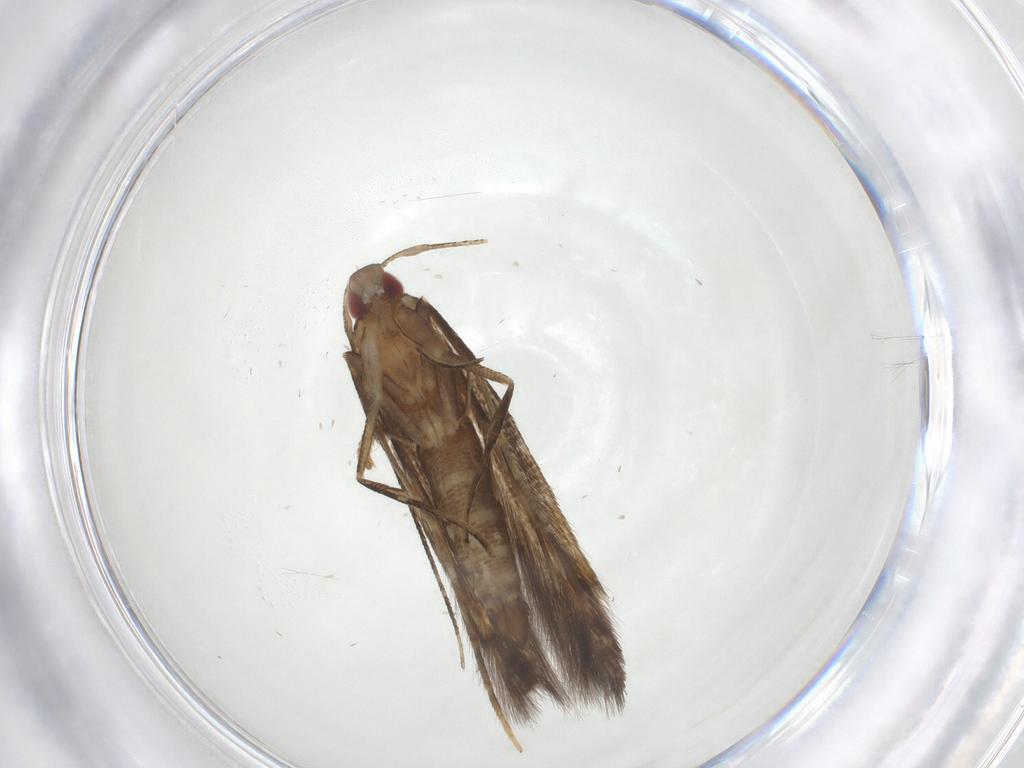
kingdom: Animalia
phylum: Arthropoda
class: Insecta
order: Lepidoptera
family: Cosmopterigidae
